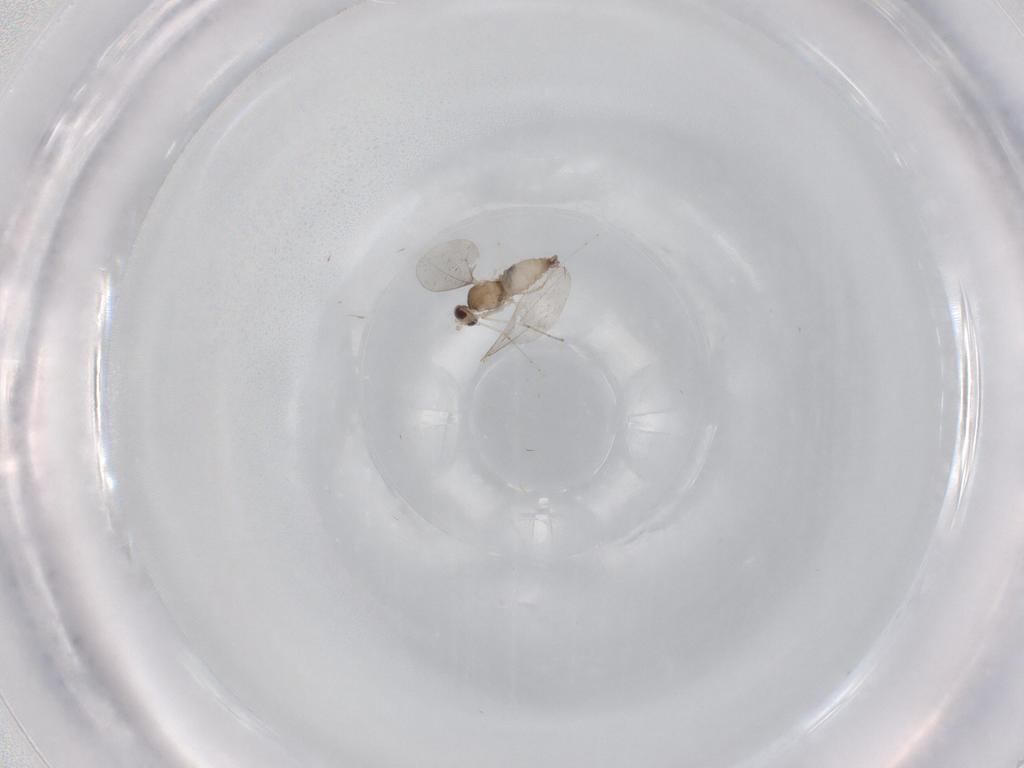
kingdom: Animalia
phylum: Arthropoda
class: Insecta
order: Diptera
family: Cecidomyiidae
